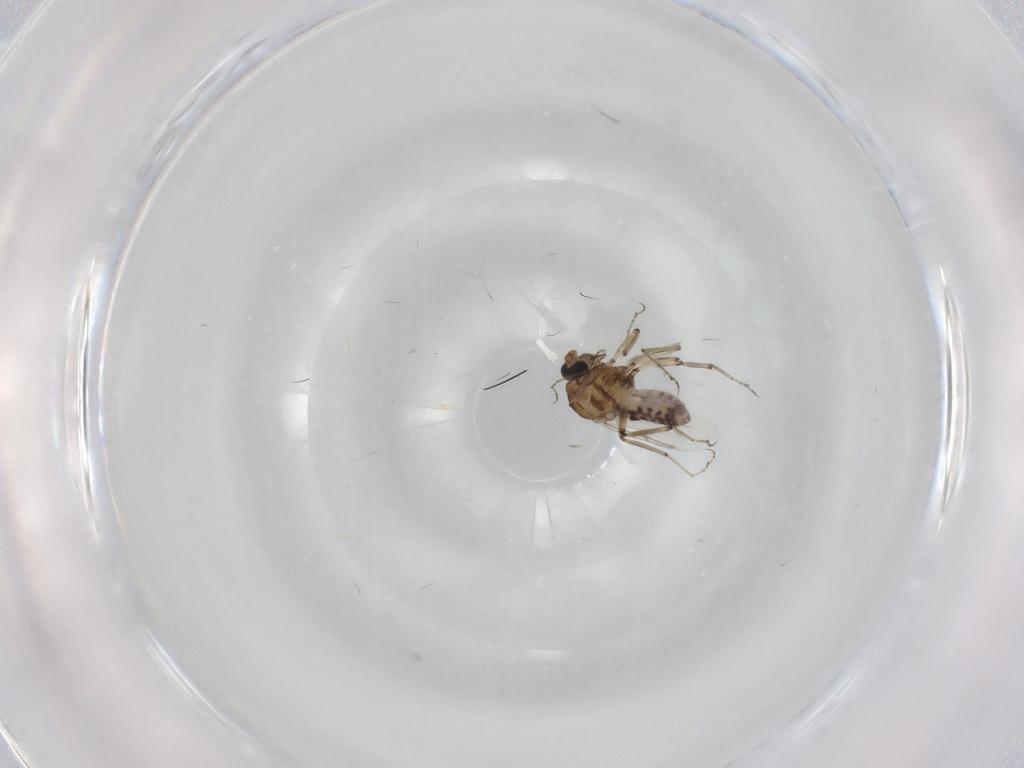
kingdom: Animalia
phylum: Arthropoda
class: Insecta
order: Diptera
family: Ceratopogonidae
